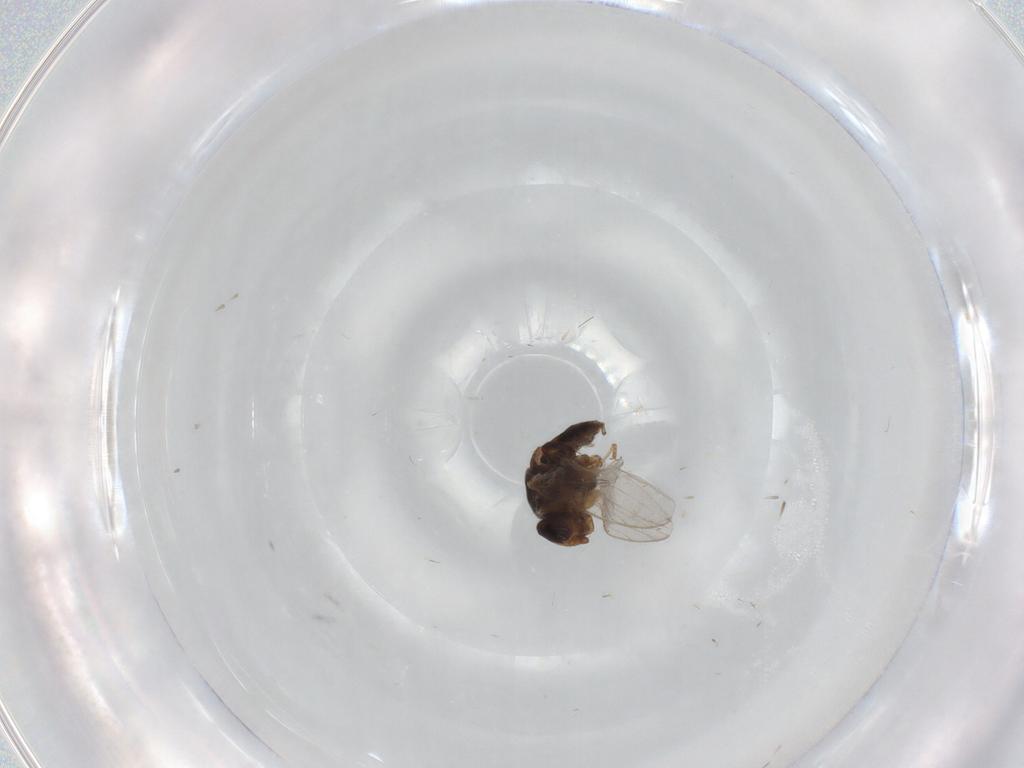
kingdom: Animalia
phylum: Arthropoda
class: Insecta
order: Diptera
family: Chloropidae
